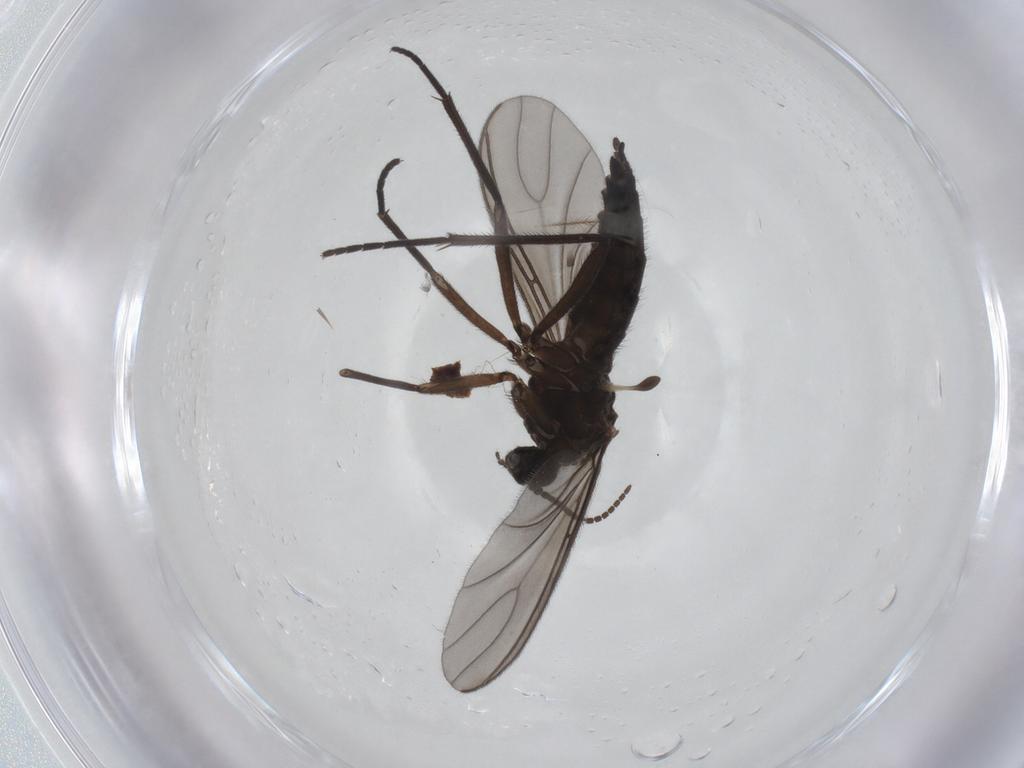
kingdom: Animalia
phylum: Arthropoda
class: Insecta
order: Diptera
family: Sciaridae
